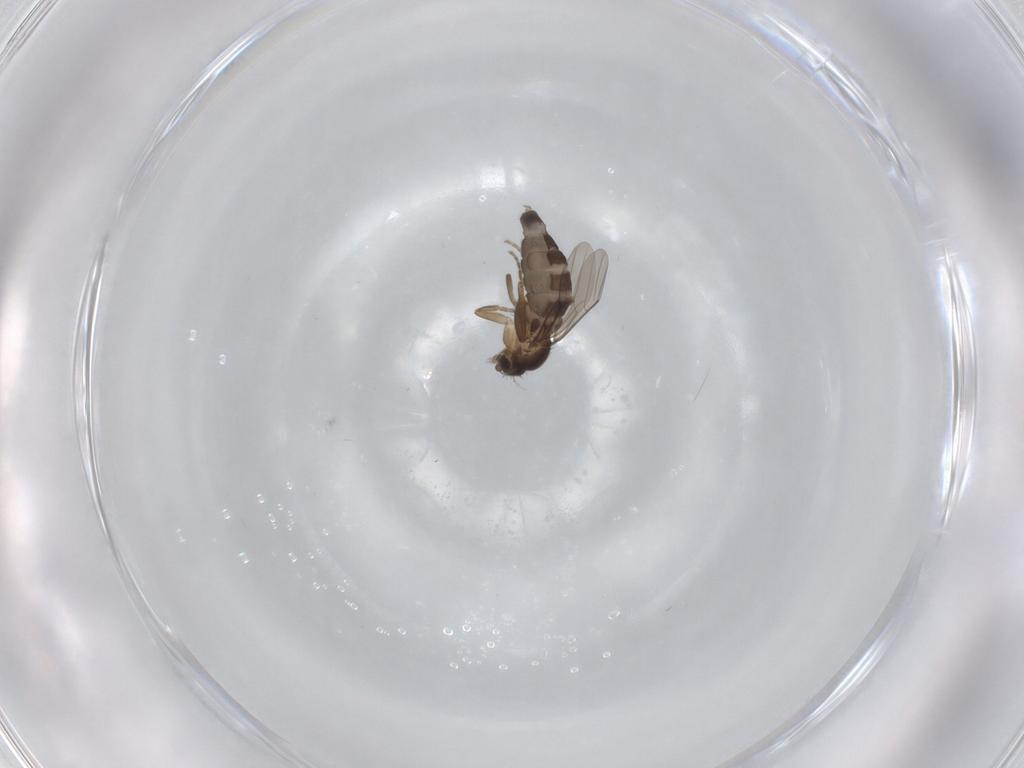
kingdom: Animalia
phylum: Arthropoda
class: Insecta
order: Diptera
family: Phoridae
